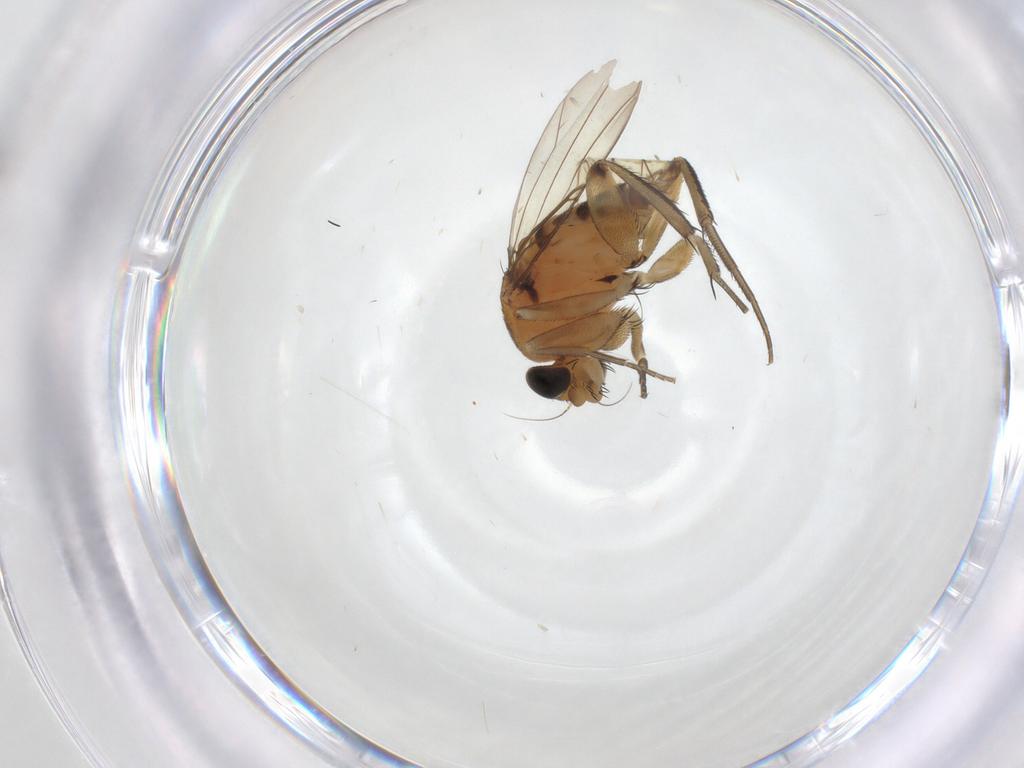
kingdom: Animalia
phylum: Arthropoda
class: Insecta
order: Diptera
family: Phoridae
